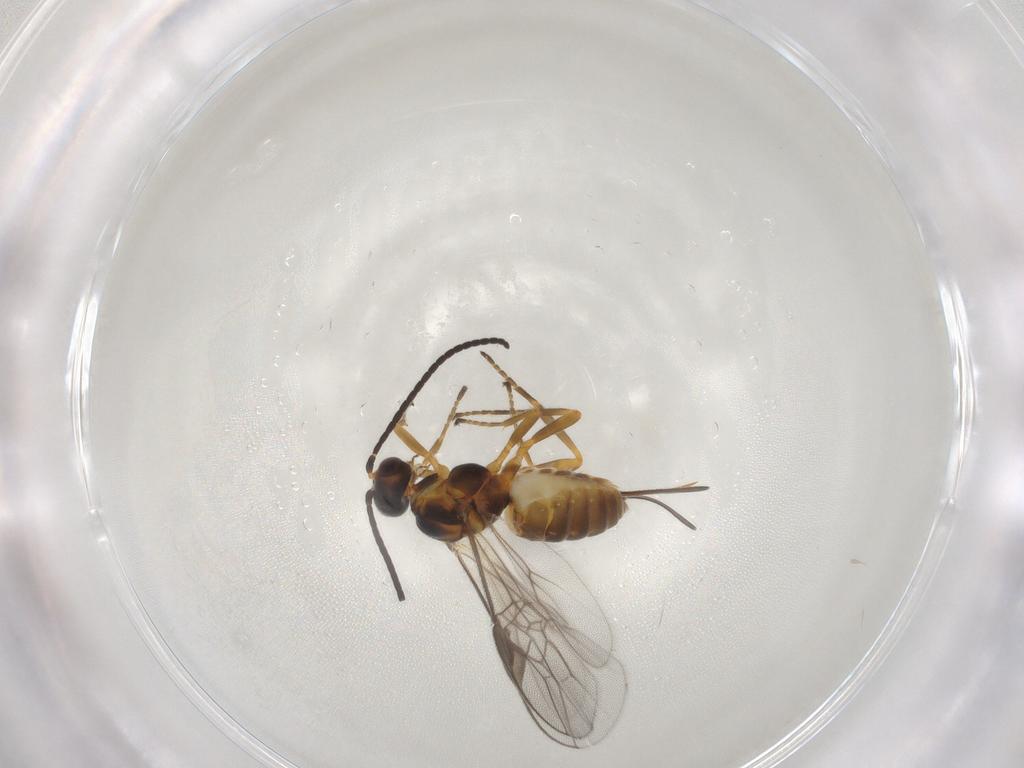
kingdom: Animalia
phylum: Arthropoda
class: Insecta
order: Hymenoptera
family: Braconidae
